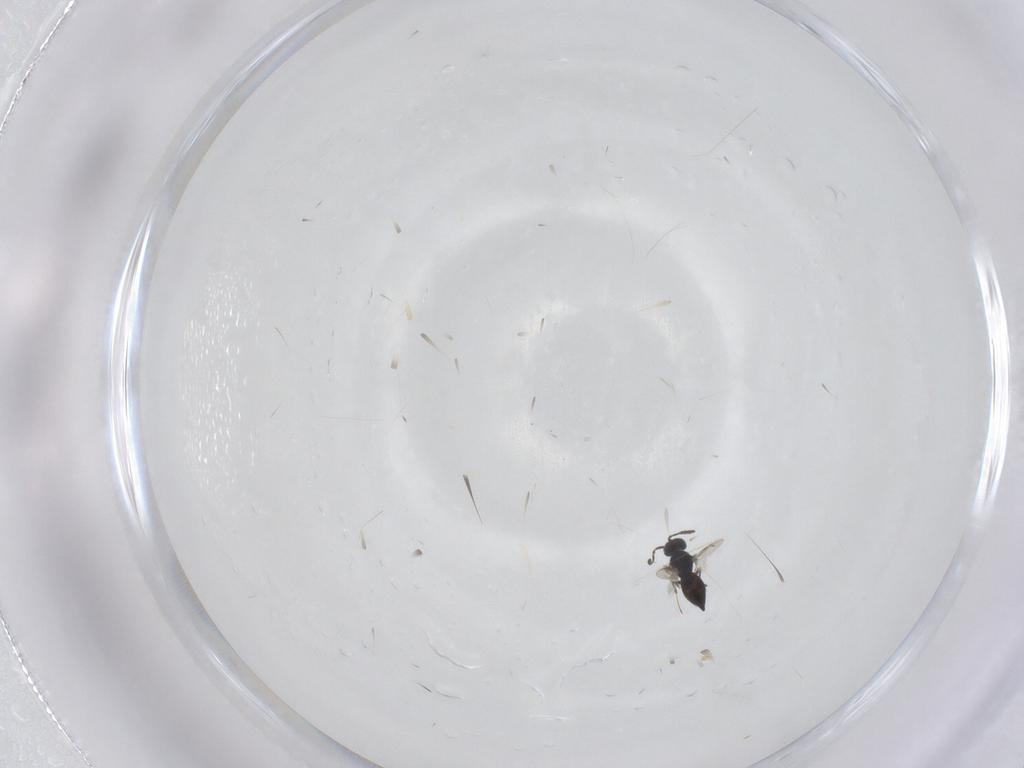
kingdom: Animalia
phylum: Arthropoda
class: Insecta
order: Hymenoptera
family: Scelionidae
